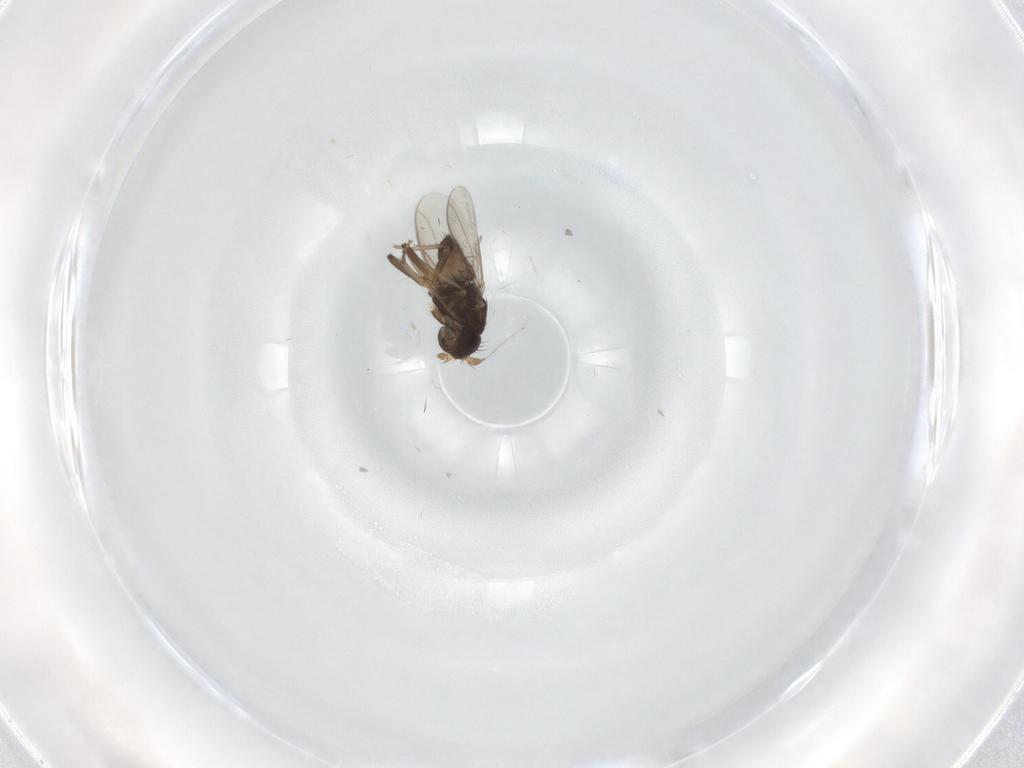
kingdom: Animalia
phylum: Arthropoda
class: Insecta
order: Diptera
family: Sphaeroceridae
